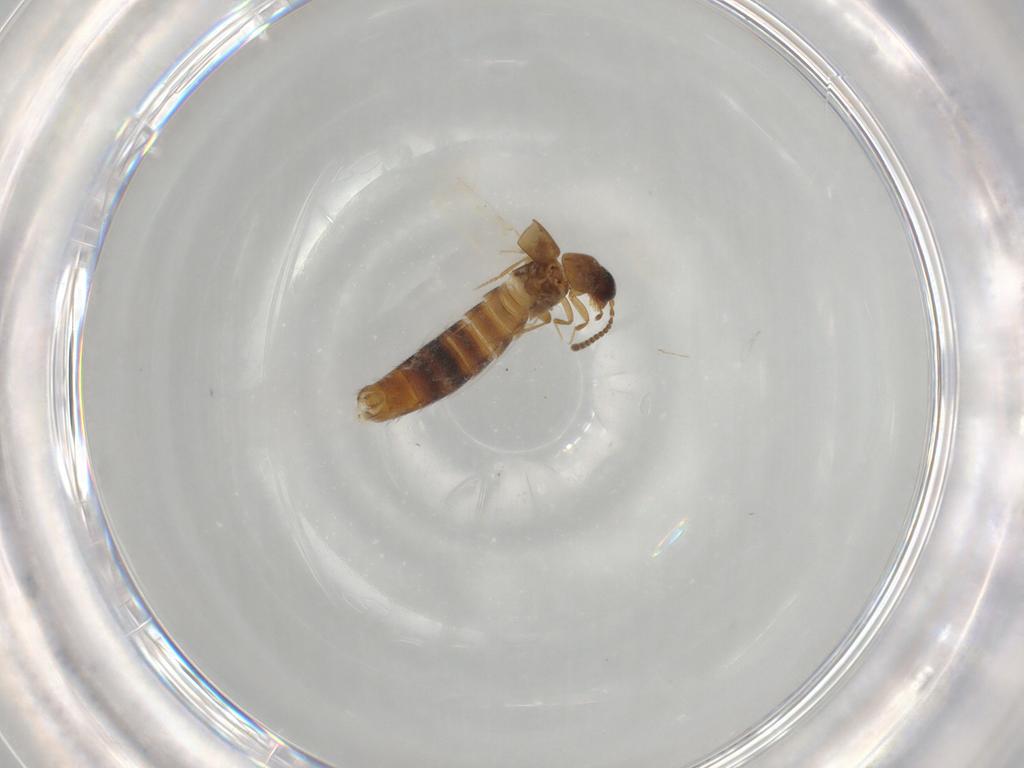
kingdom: Animalia
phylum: Arthropoda
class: Insecta
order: Coleoptera
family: Staphylinidae
